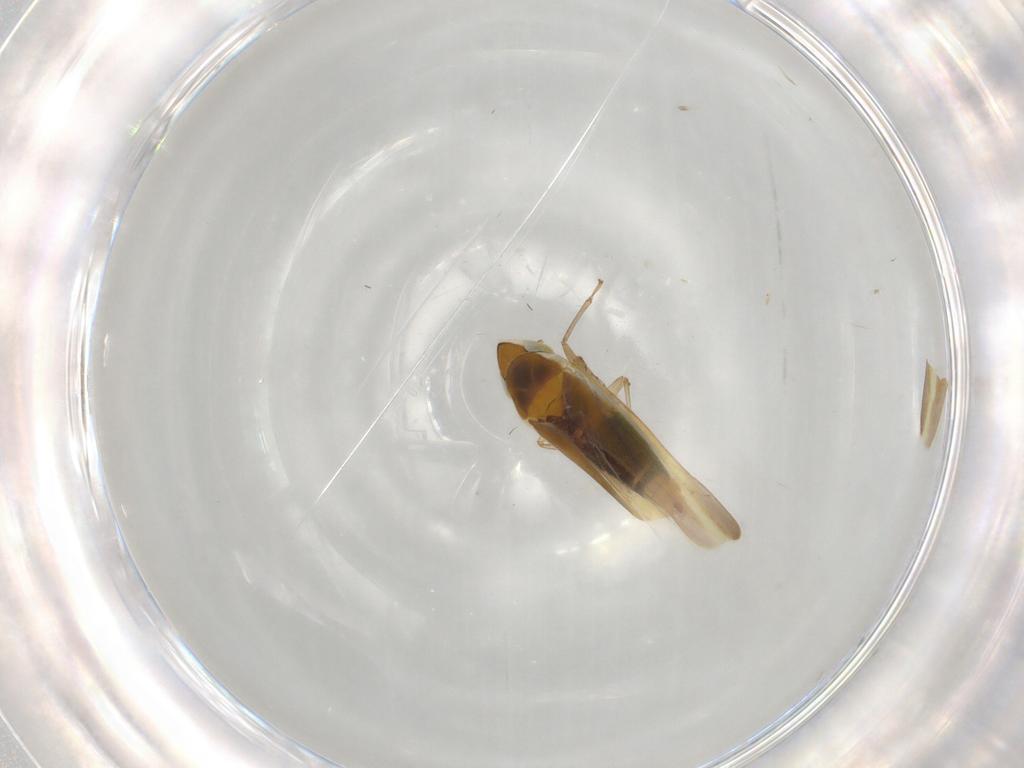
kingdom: Animalia
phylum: Arthropoda
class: Insecta
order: Hemiptera
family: Cicadellidae
